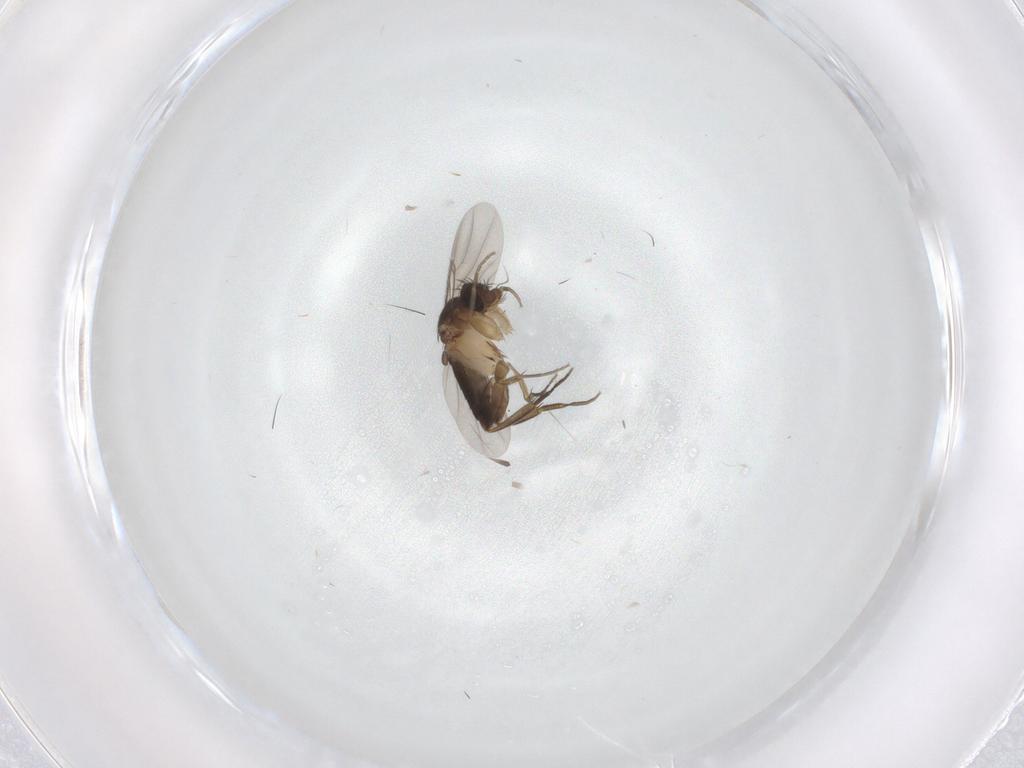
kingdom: Animalia
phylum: Arthropoda
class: Insecta
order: Diptera
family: Phoridae
